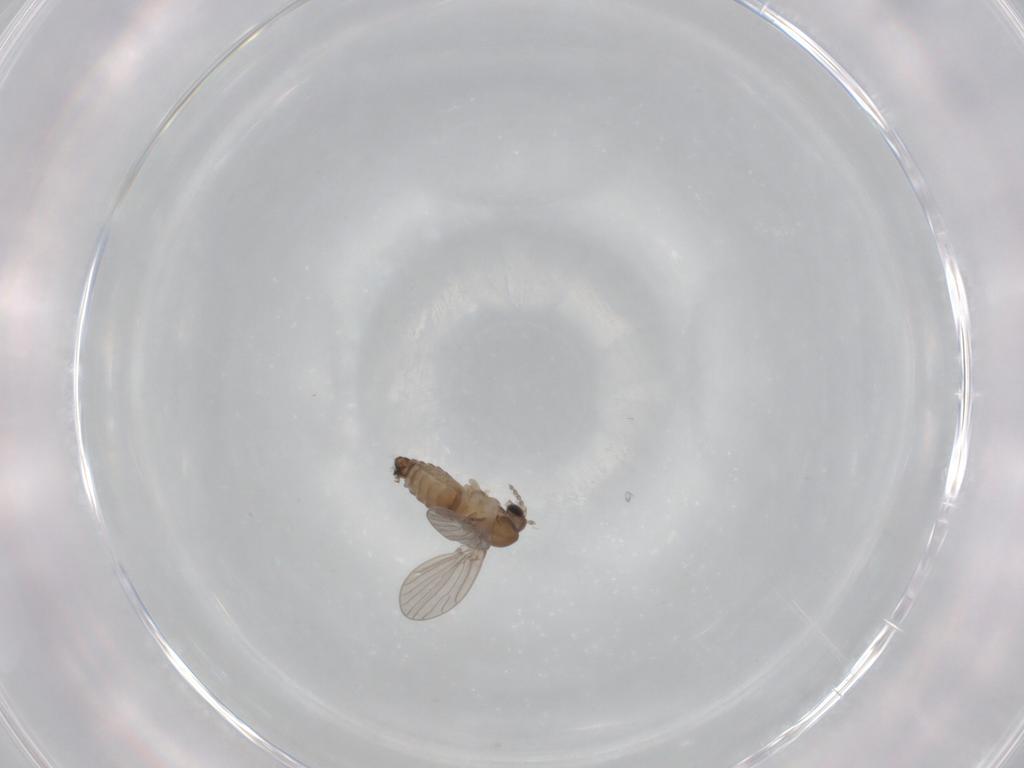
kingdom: Animalia
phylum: Arthropoda
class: Insecta
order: Diptera
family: Psychodidae
